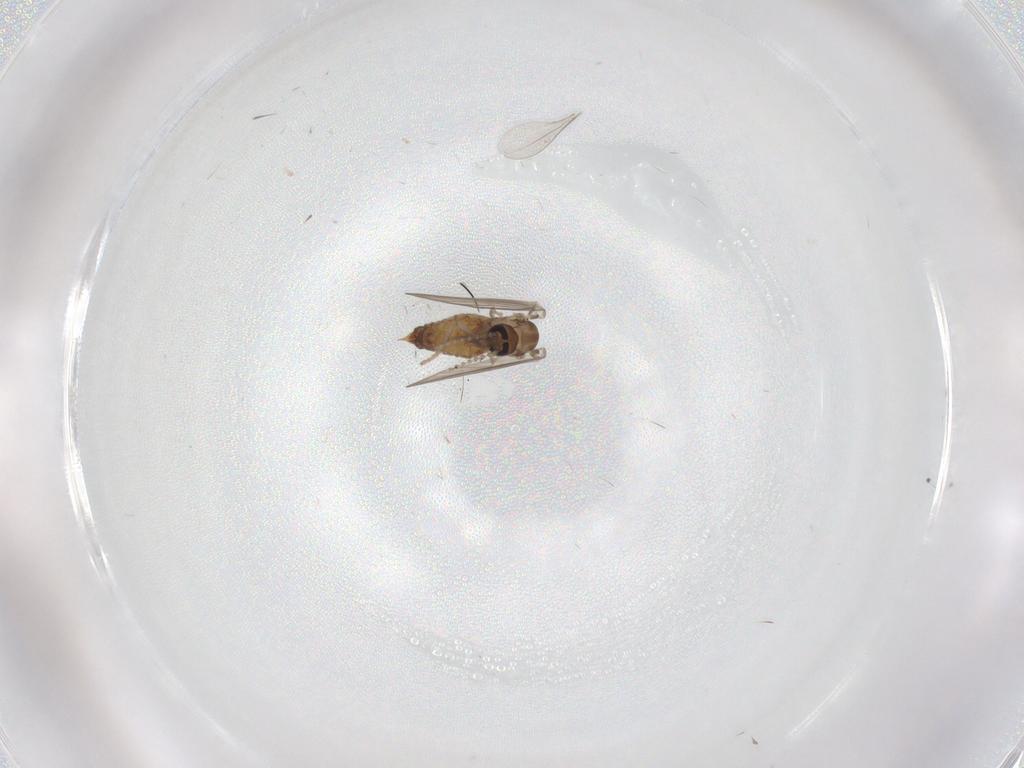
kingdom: Animalia
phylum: Arthropoda
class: Insecta
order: Diptera
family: Psychodidae
